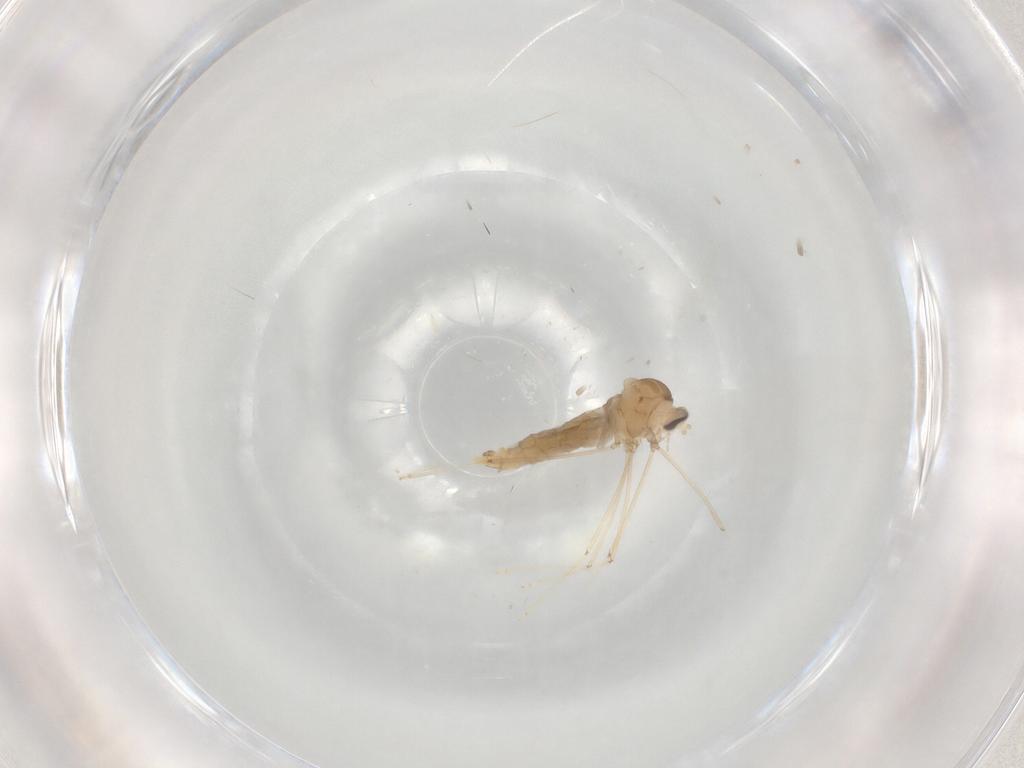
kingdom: Animalia
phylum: Arthropoda
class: Insecta
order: Diptera
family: Cecidomyiidae
